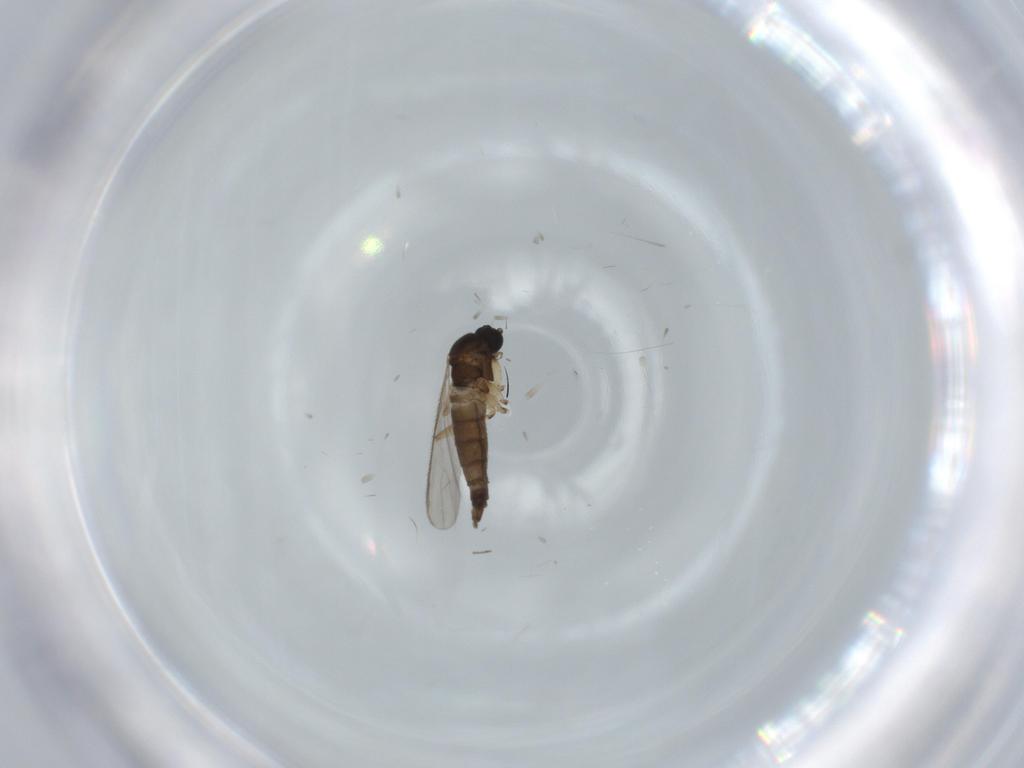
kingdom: Animalia
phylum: Arthropoda
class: Insecta
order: Diptera
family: Sciaridae
